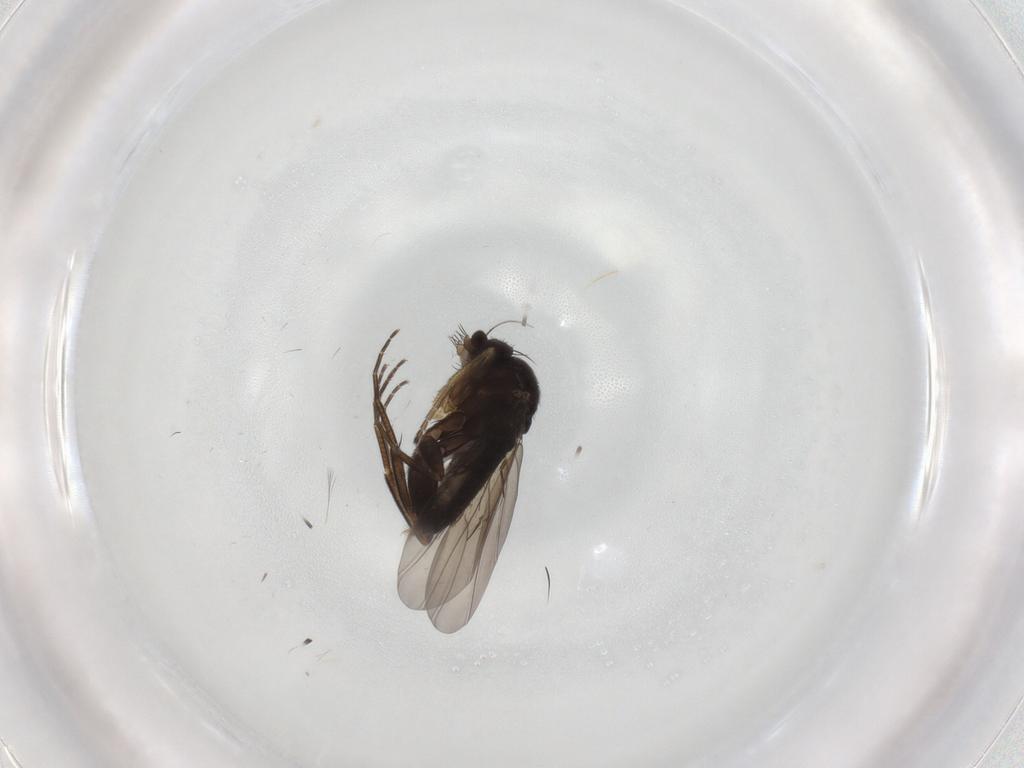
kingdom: Animalia
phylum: Arthropoda
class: Insecta
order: Diptera
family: Phoridae
